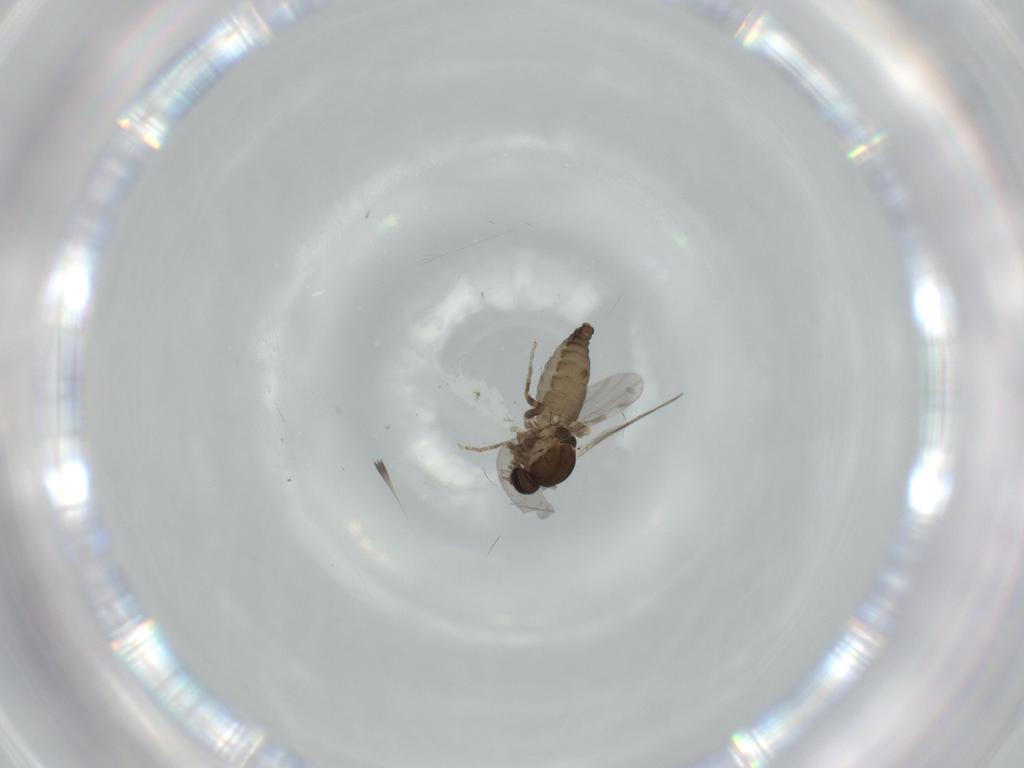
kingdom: Animalia
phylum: Arthropoda
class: Insecta
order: Diptera
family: Ceratopogonidae
